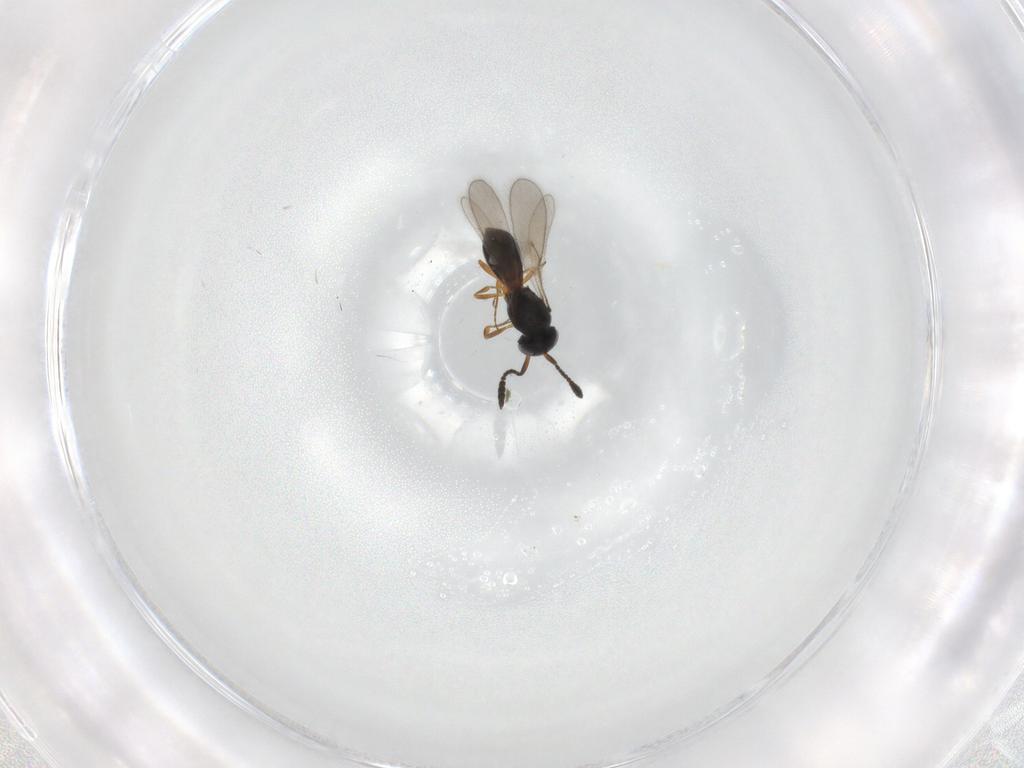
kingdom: Animalia
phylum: Arthropoda
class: Insecta
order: Hymenoptera
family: Scelionidae
